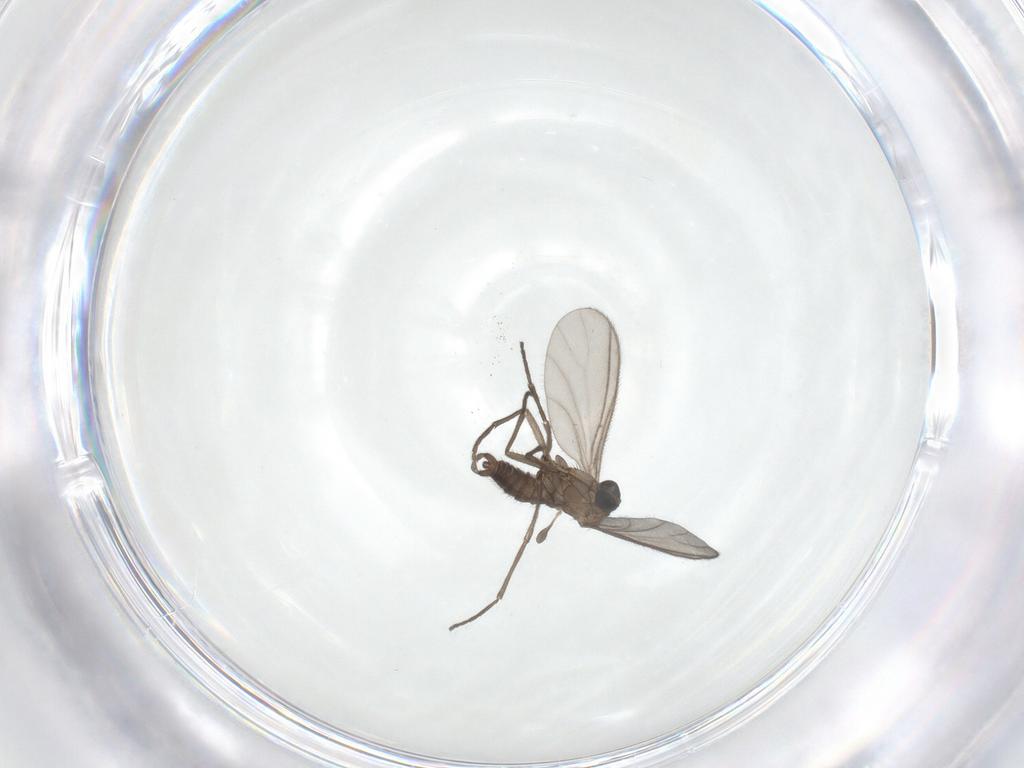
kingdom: Animalia
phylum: Arthropoda
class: Insecta
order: Diptera
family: Sciaridae
